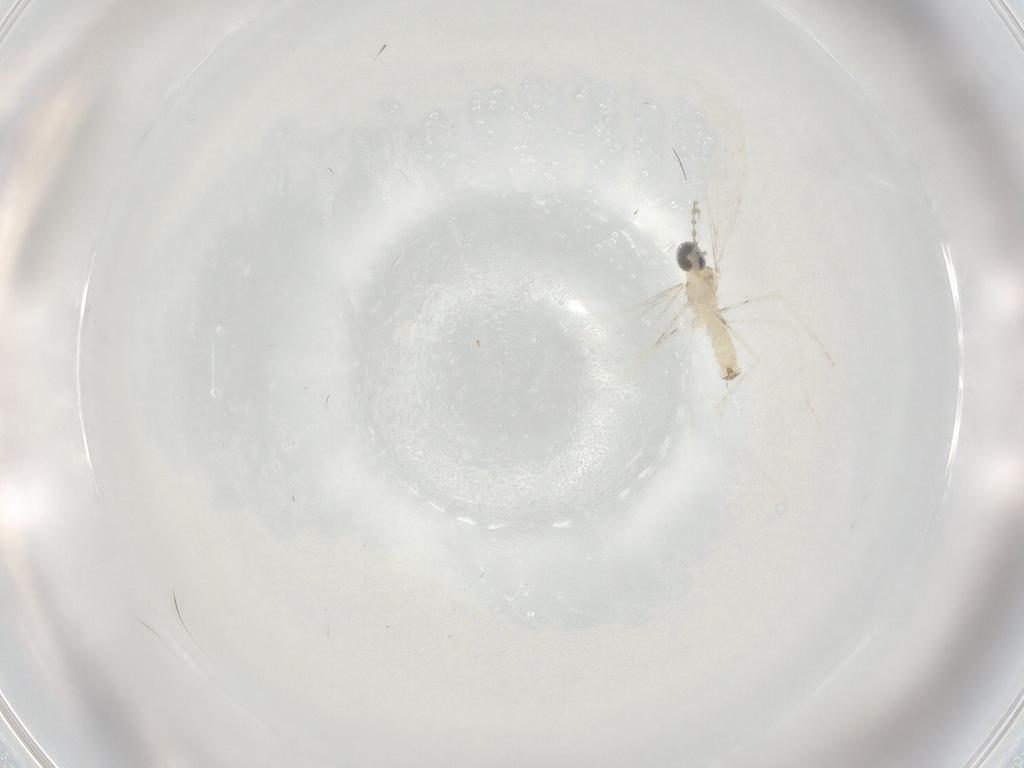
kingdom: Animalia
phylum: Arthropoda
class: Insecta
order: Diptera
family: Cecidomyiidae
